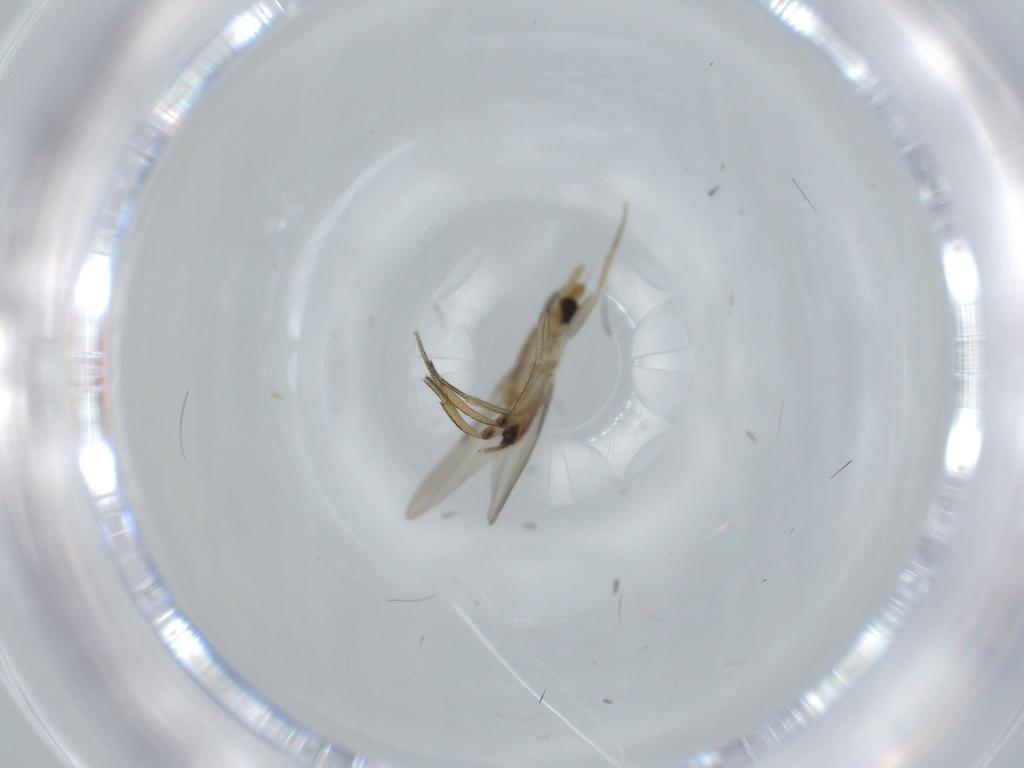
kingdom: Animalia
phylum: Arthropoda
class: Insecta
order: Diptera
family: Phoridae
